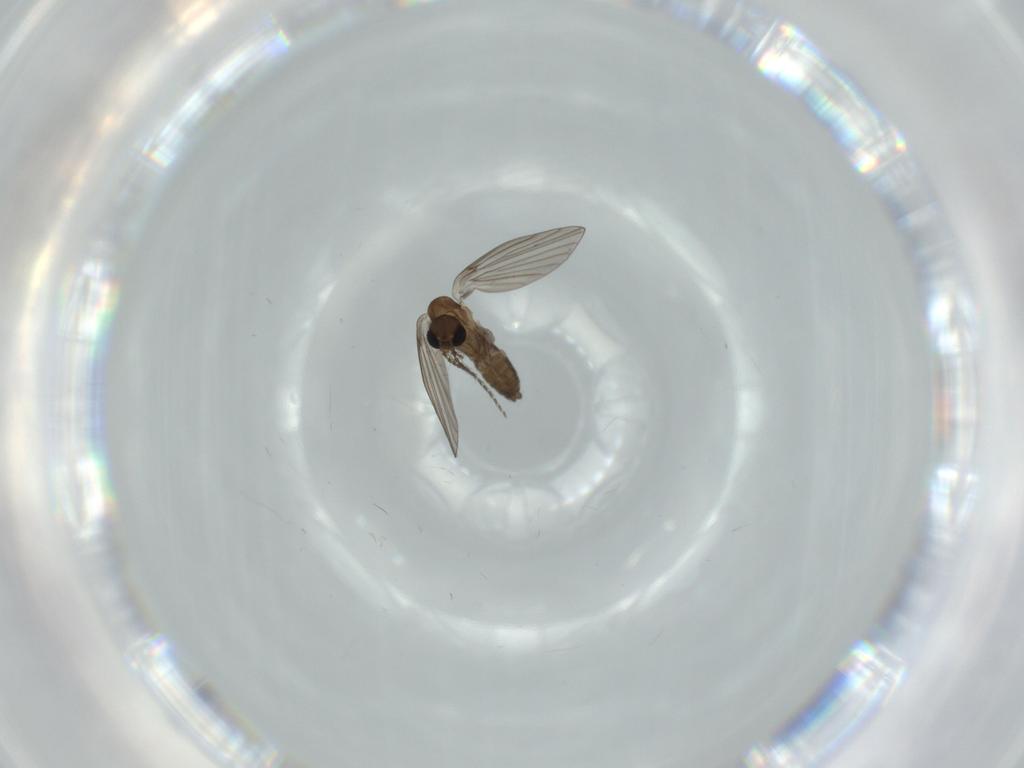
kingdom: Animalia
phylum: Arthropoda
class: Insecta
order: Diptera
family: Psychodidae
